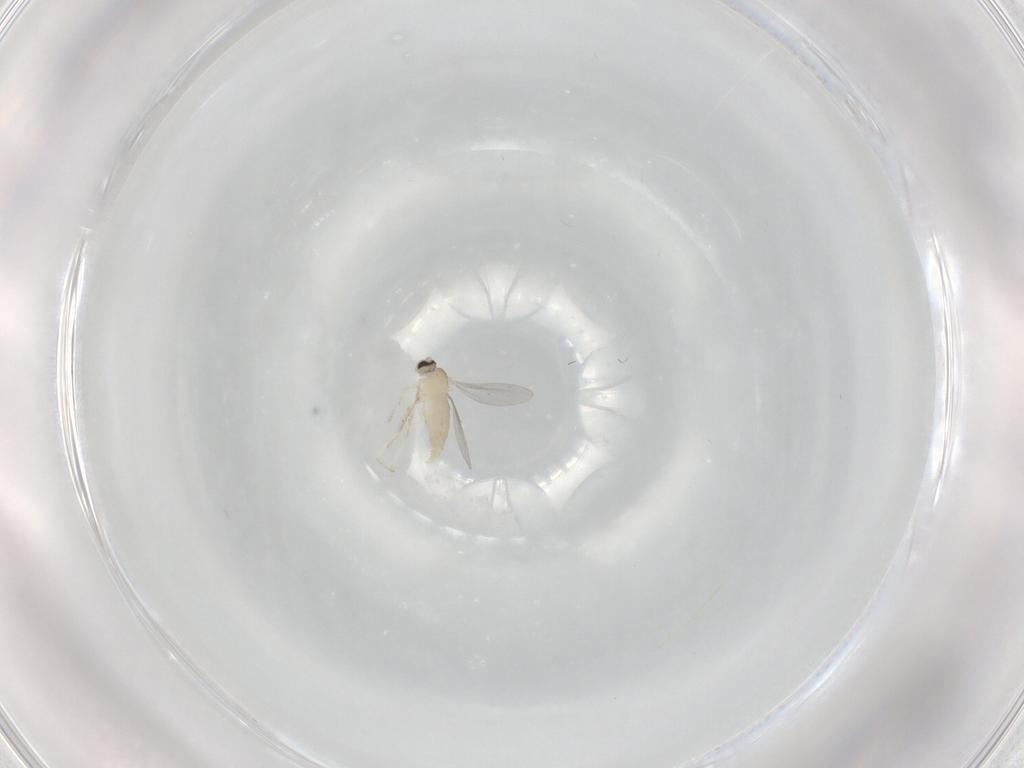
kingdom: Animalia
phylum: Arthropoda
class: Insecta
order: Diptera
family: Cecidomyiidae
